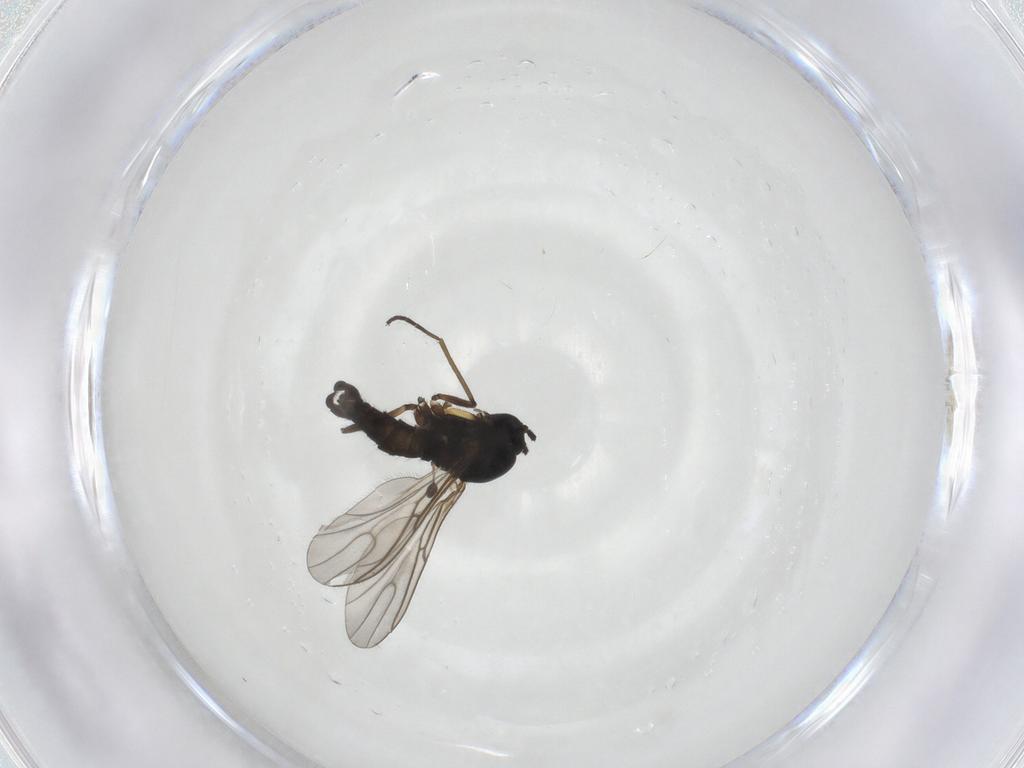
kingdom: Animalia
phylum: Arthropoda
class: Insecta
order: Diptera
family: Sciaridae
